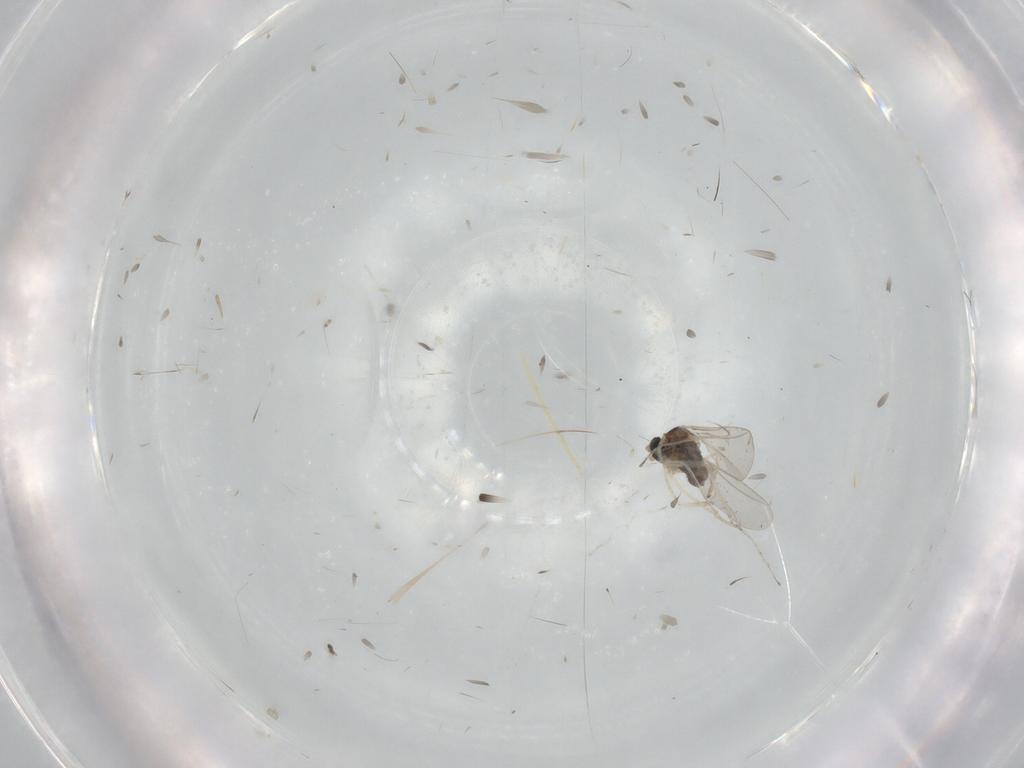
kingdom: Animalia
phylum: Arthropoda
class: Insecta
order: Diptera
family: Ceratopogonidae
